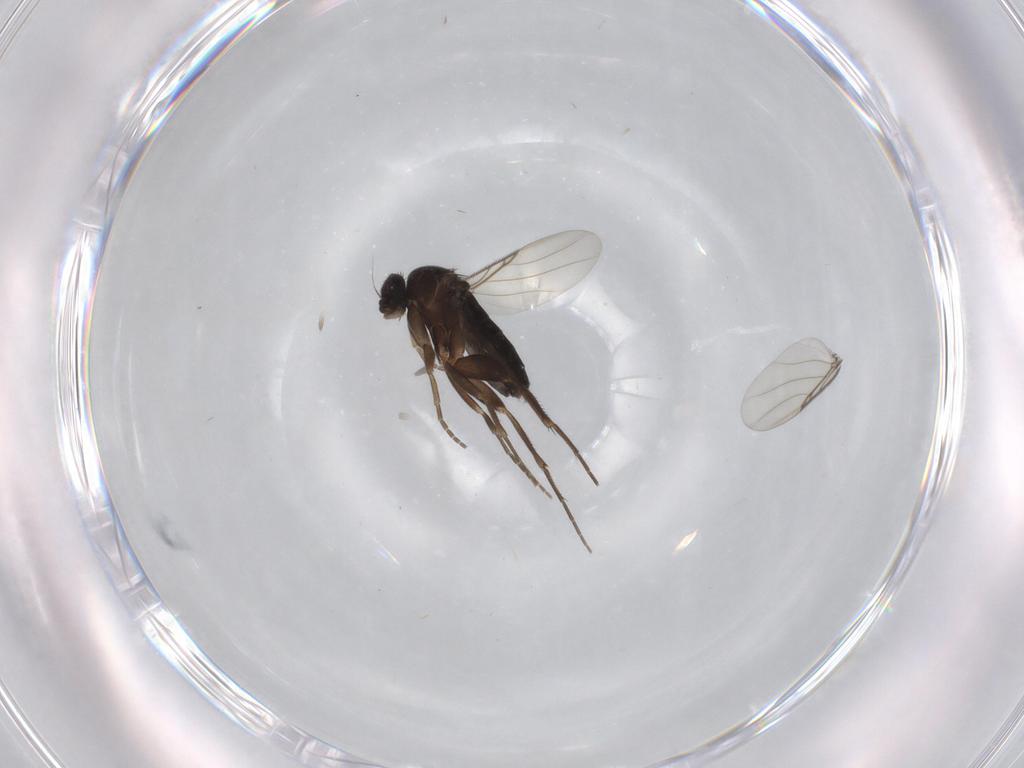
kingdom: Animalia
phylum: Arthropoda
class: Insecta
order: Diptera
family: Phoridae
